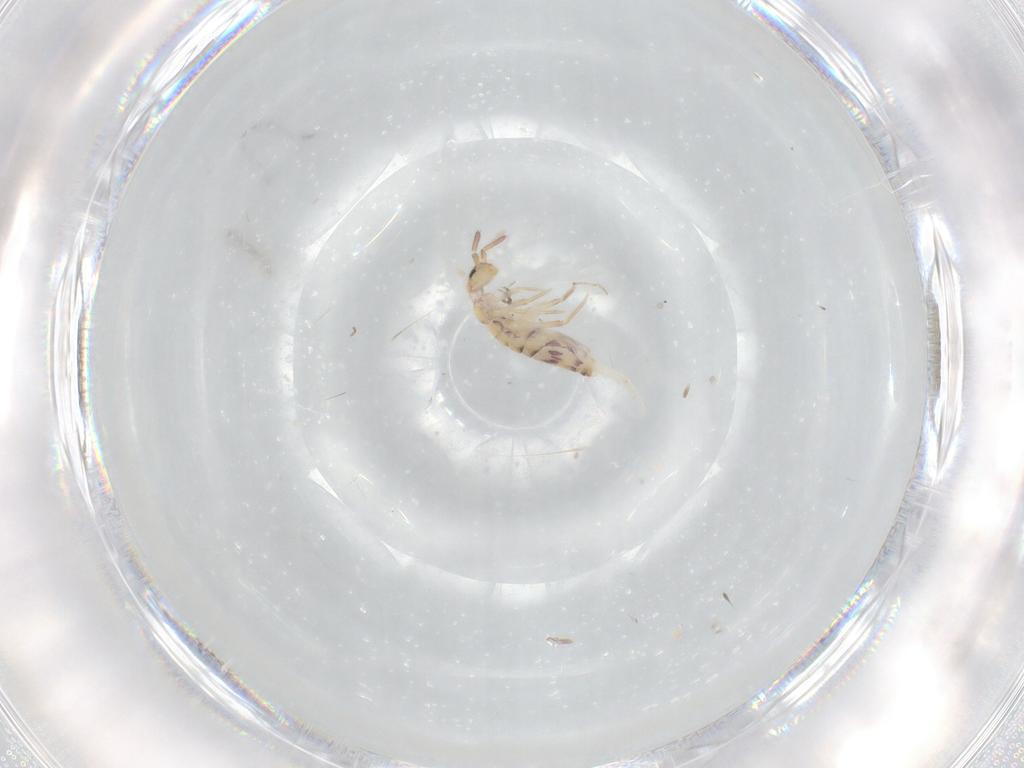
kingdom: Animalia
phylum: Arthropoda
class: Collembola
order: Entomobryomorpha
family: Entomobryidae
